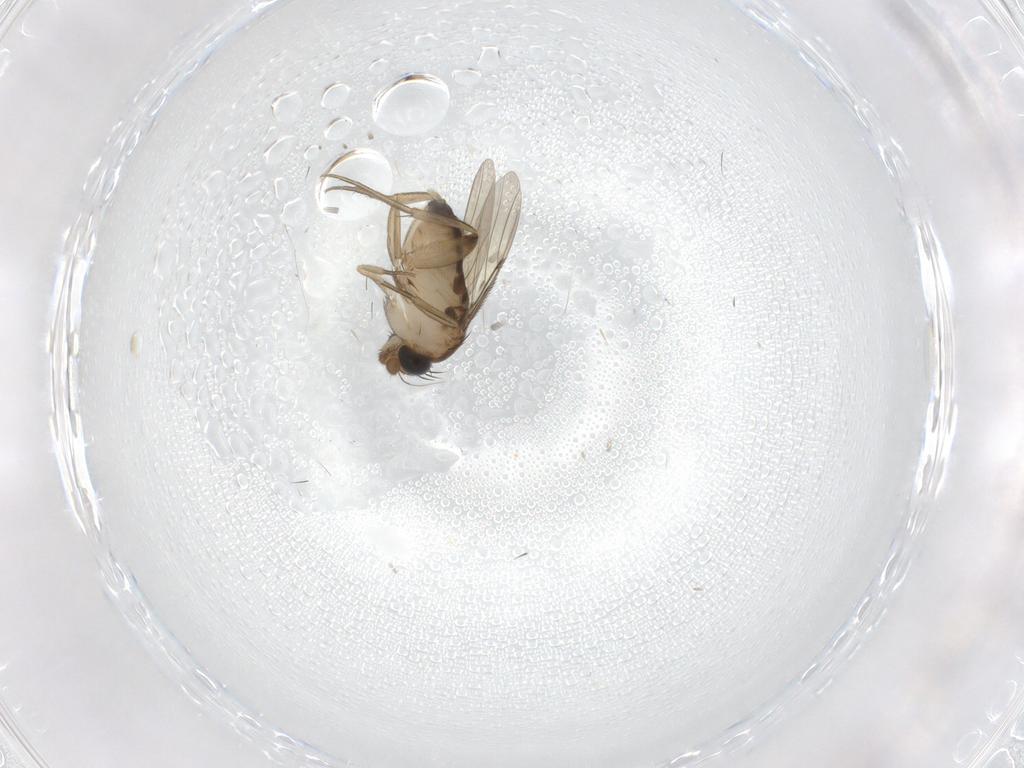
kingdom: Animalia
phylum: Arthropoda
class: Insecta
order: Diptera
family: Phoridae
